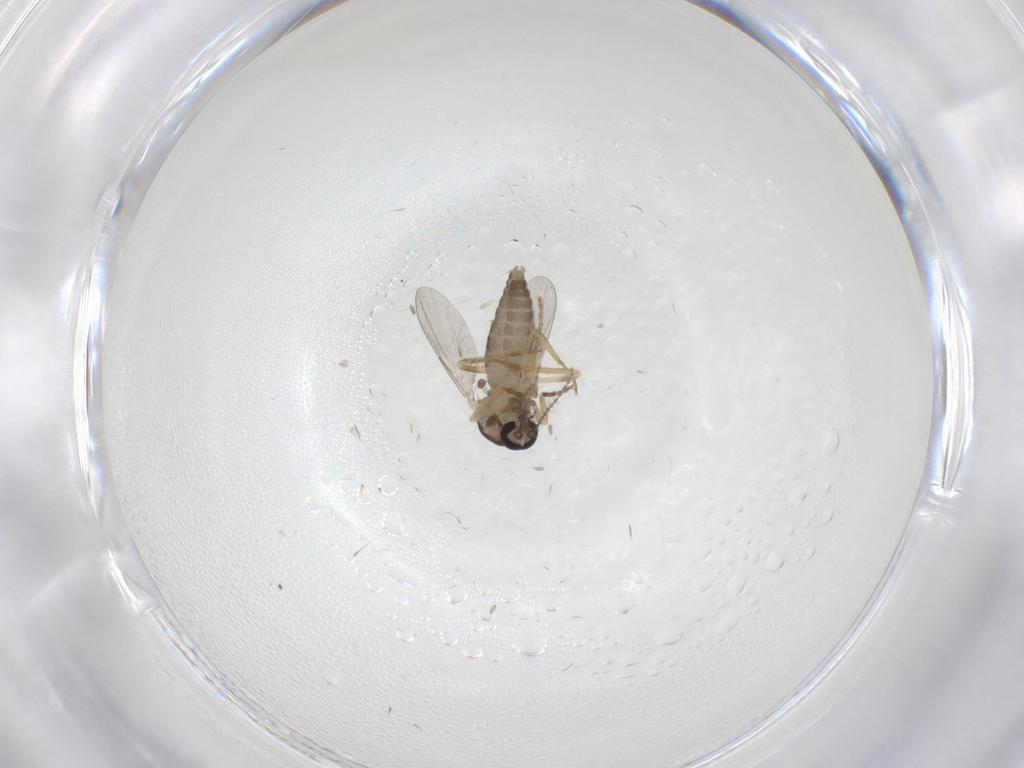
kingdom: Animalia
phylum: Arthropoda
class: Insecta
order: Diptera
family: Ceratopogonidae
